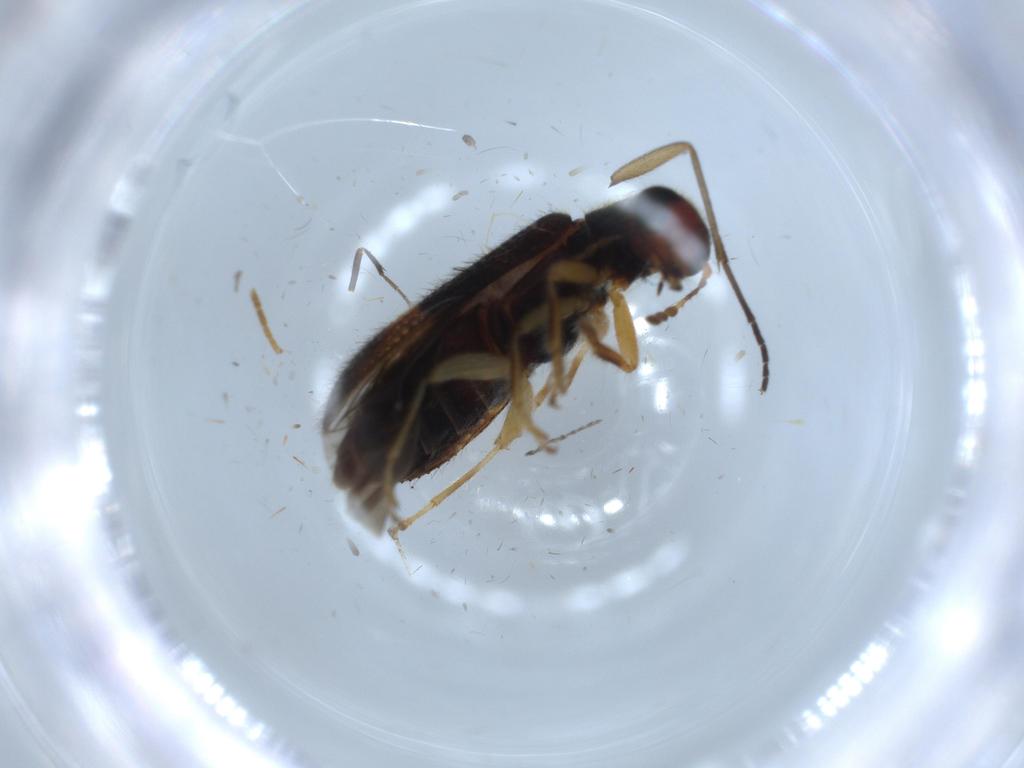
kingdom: Animalia
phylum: Arthropoda
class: Insecta
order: Coleoptera
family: Cleridae
